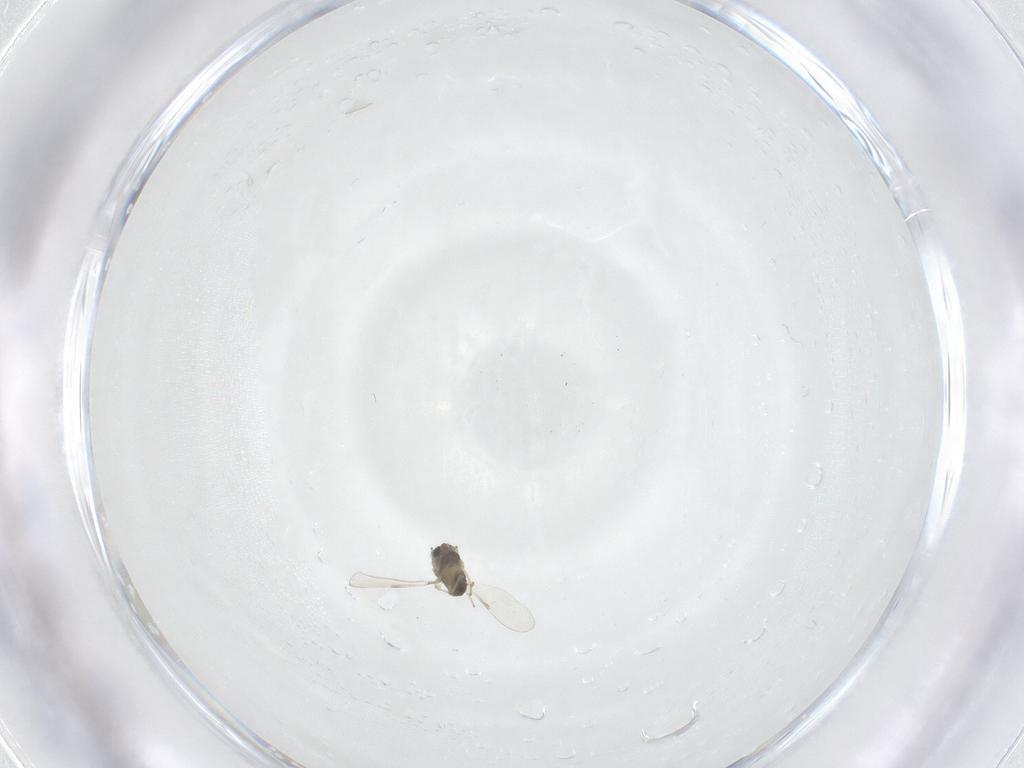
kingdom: Animalia
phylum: Arthropoda
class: Insecta
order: Diptera
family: Chironomidae
